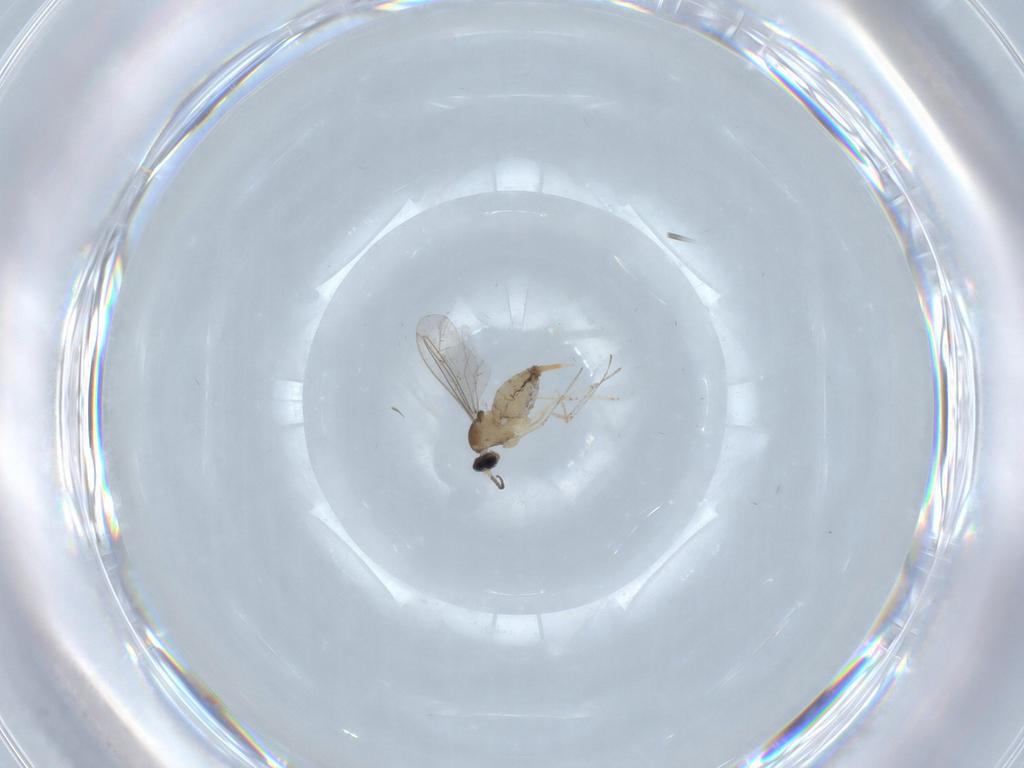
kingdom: Animalia
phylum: Arthropoda
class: Insecta
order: Diptera
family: Cecidomyiidae
